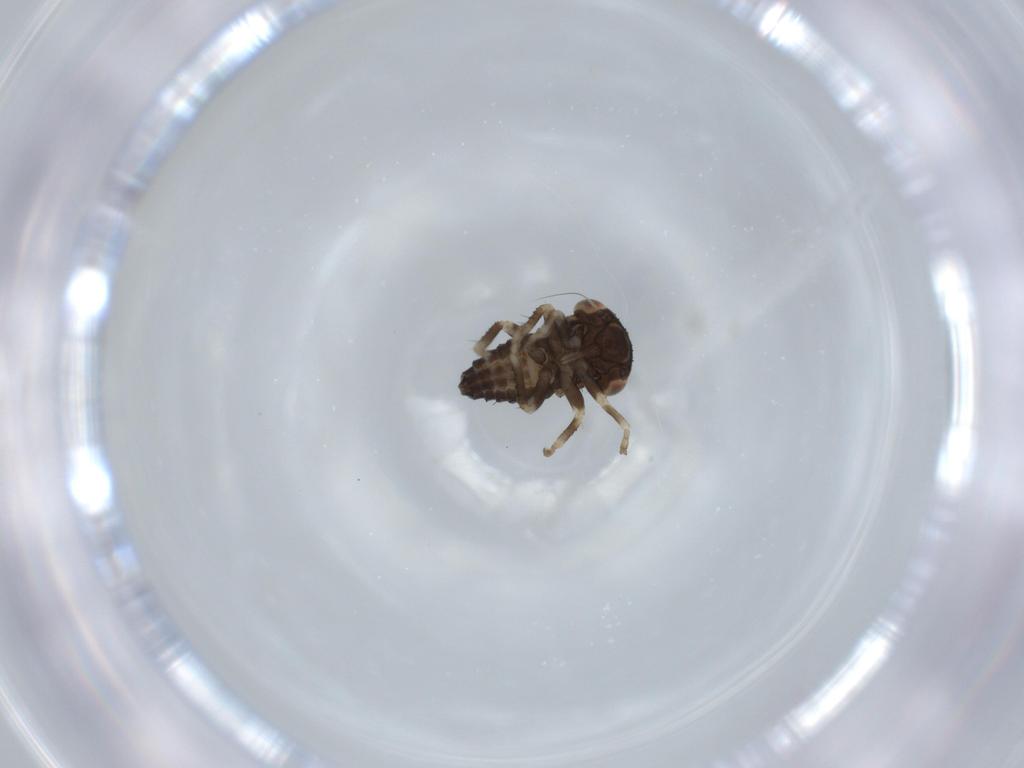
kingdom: Animalia
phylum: Arthropoda
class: Insecta
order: Hemiptera
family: Cicadellidae
